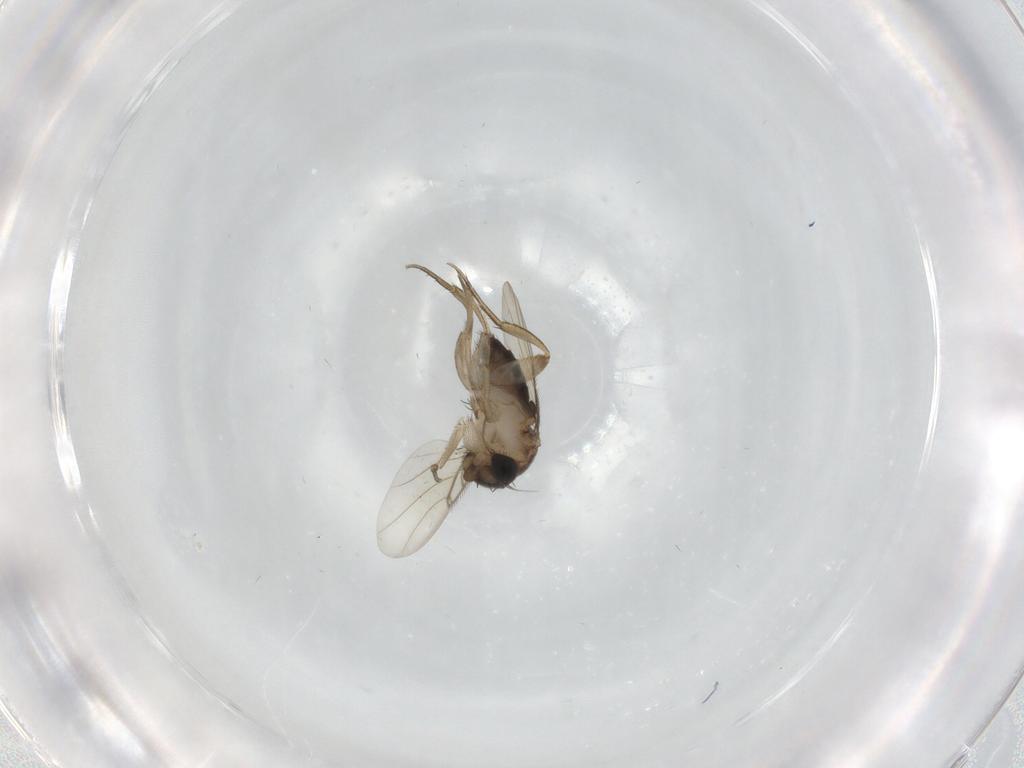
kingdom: Animalia
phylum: Arthropoda
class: Insecta
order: Diptera
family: Phoridae
